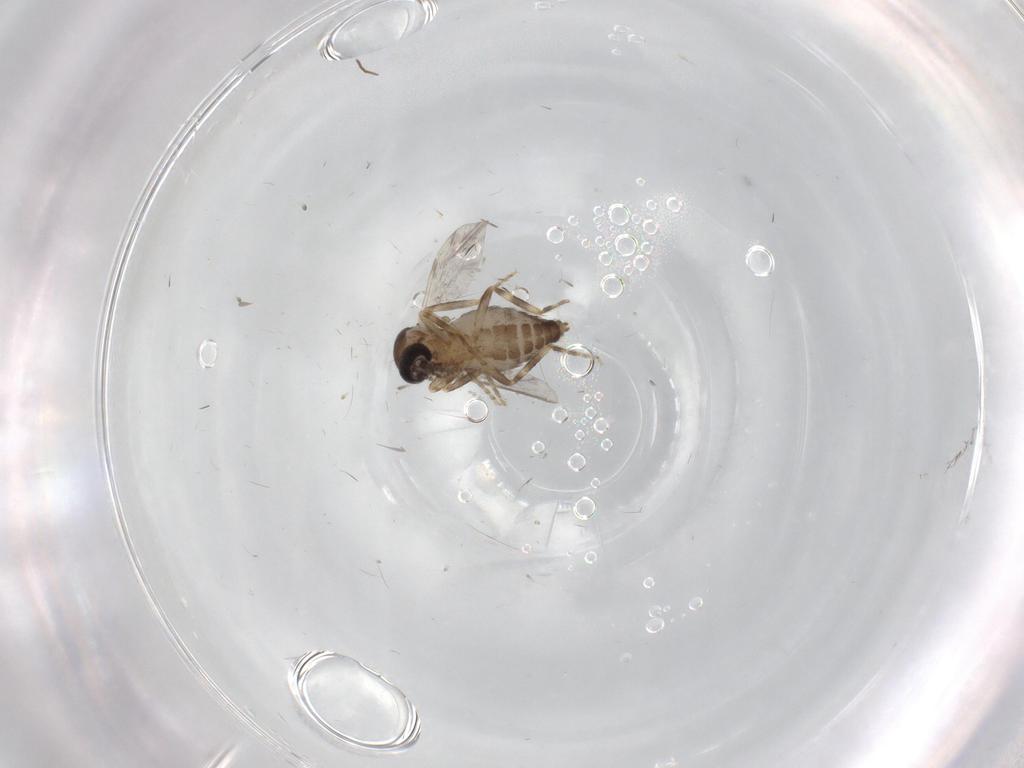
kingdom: Animalia
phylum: Arthropoda
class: Insecta
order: Diptera
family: Ceratopogonidae
